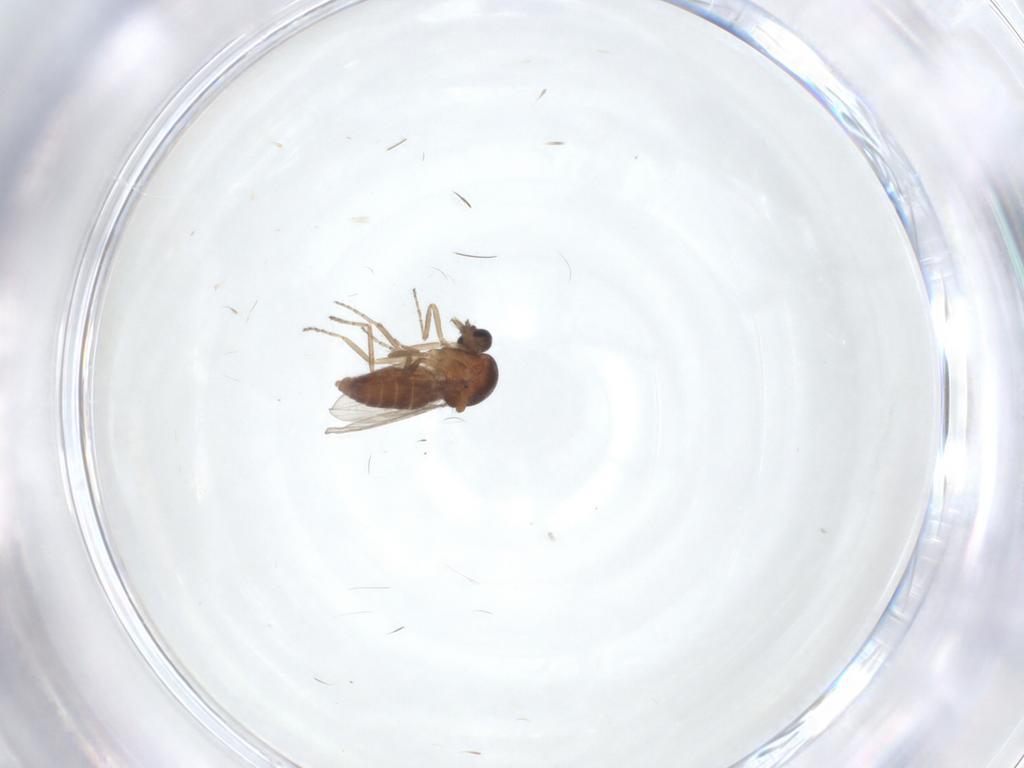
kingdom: Animalia
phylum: Arthropoda
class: Insecta
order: Diptera
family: Ceratopogonidae
